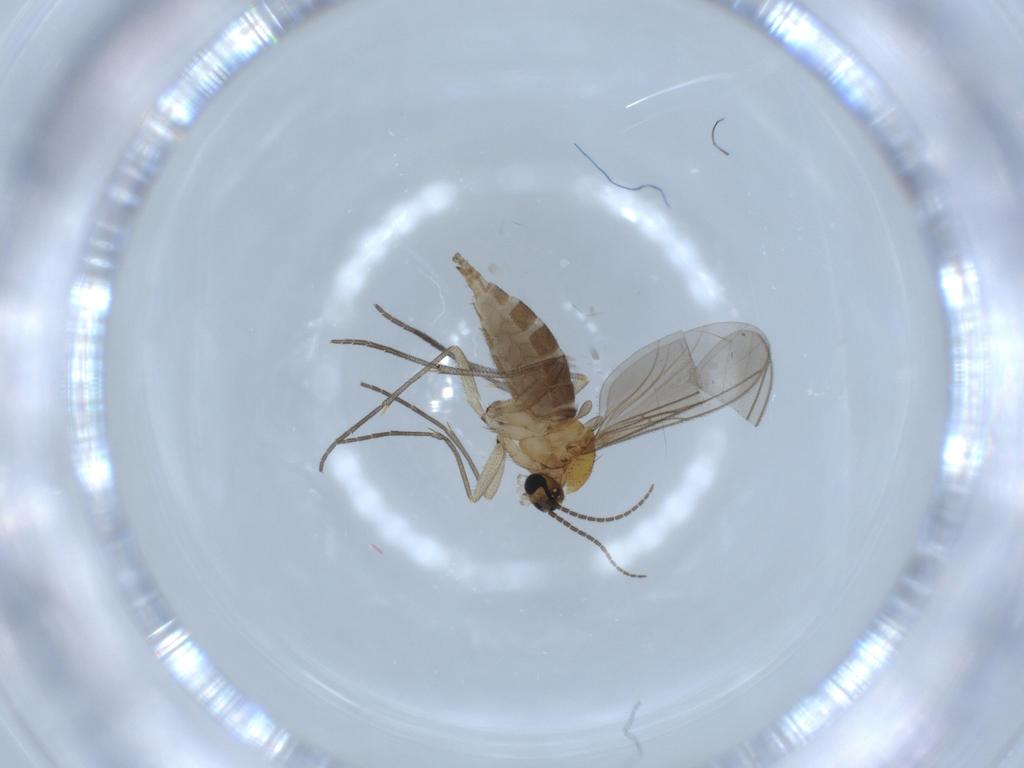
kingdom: Animalia
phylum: Arthropoda
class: Insecta
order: Diptera
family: Sciaridae
